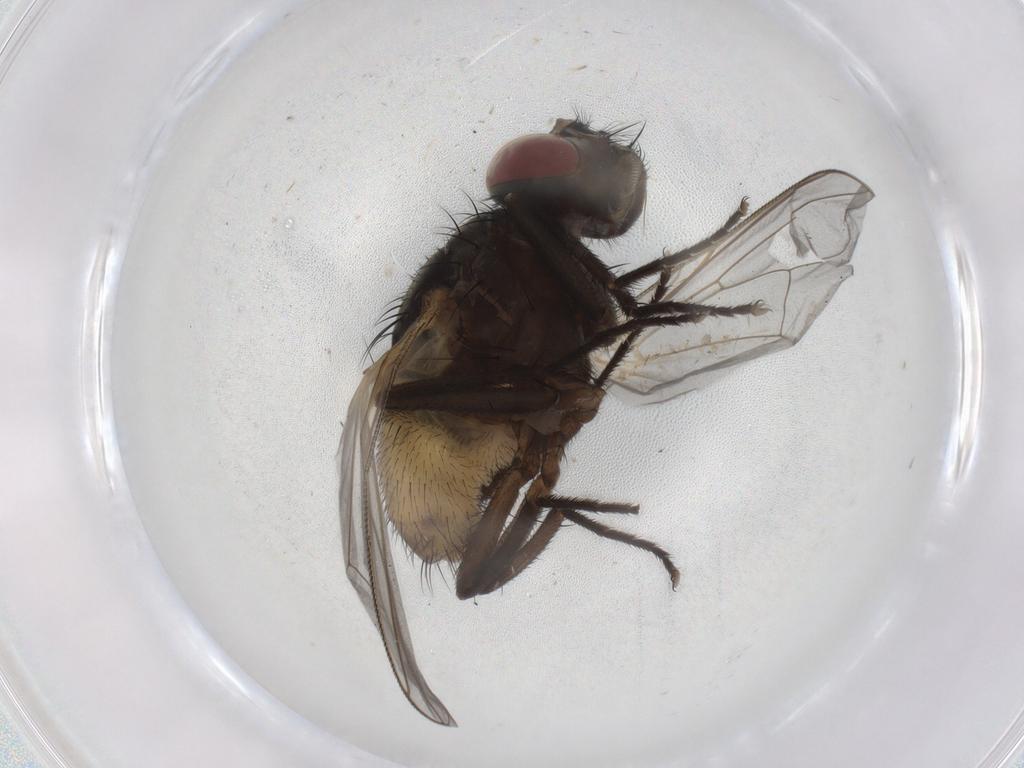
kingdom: Animalia
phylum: Arthropoda
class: Insecta
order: Diptera
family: Muscidae
